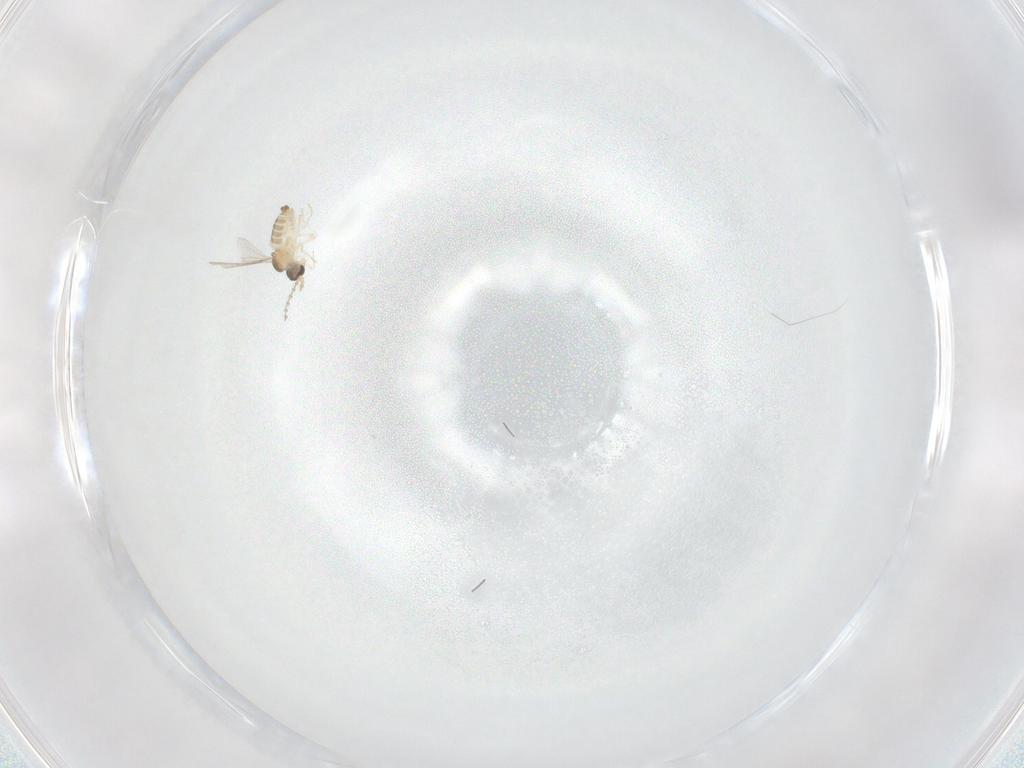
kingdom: Animalia
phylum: Arthropoda
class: Insecta
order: Diptera
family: Cecidomyiidae
